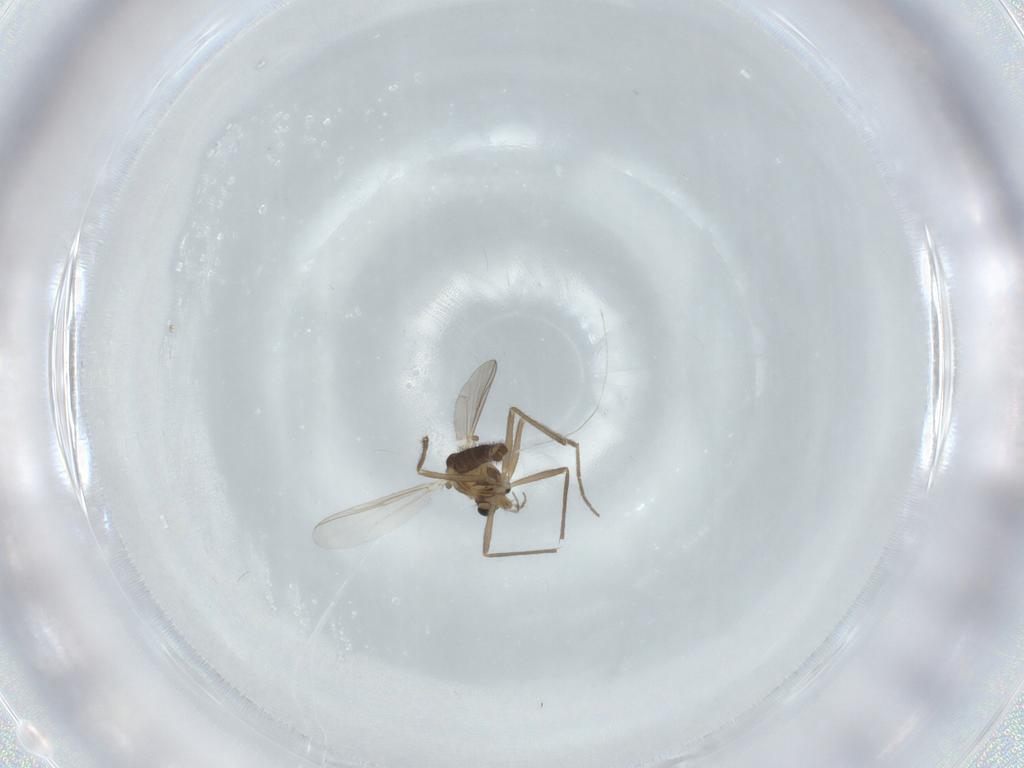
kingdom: Animalia
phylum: Arthropoda
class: Insecta
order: Diptera
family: Chironomidae
